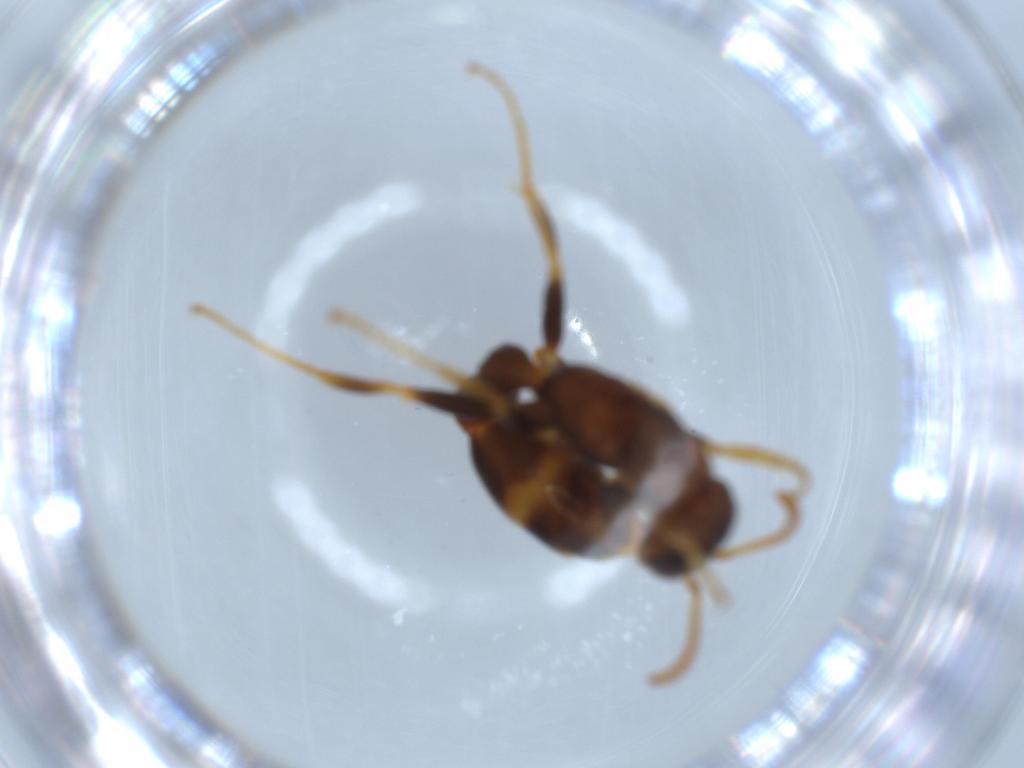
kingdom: Animalia
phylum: Arthropoda
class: Insecta
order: Hymenoptera
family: Formicidae
